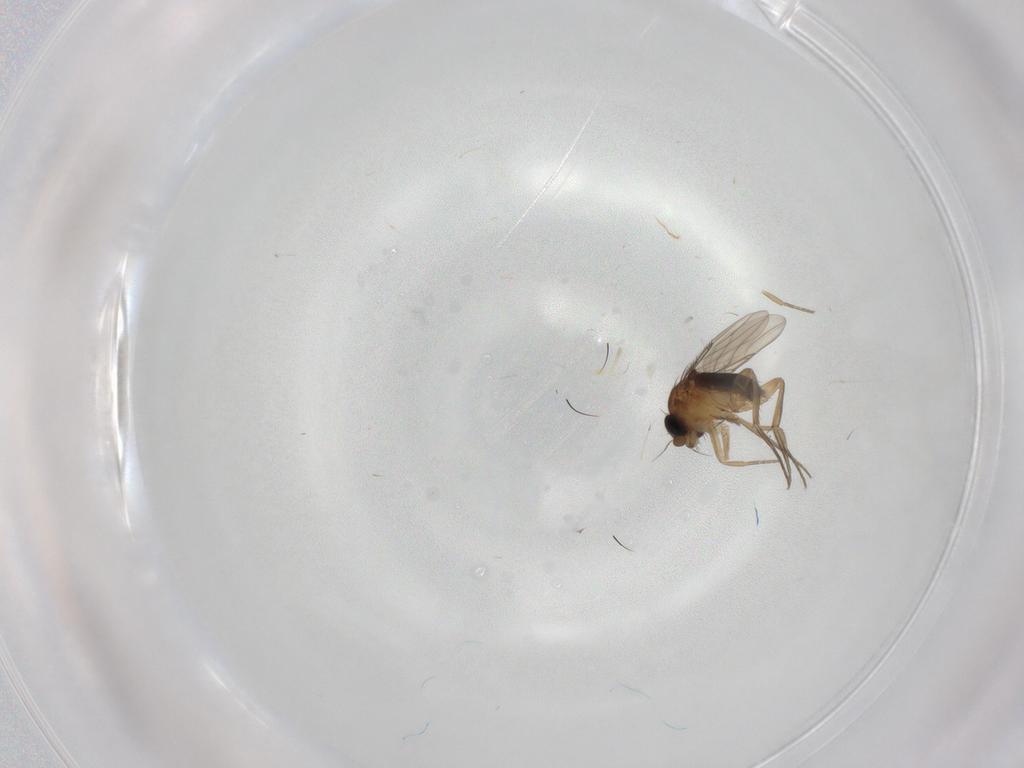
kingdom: Animalia
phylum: Arthropoda
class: Insecta
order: Diptera
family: Phoridae
